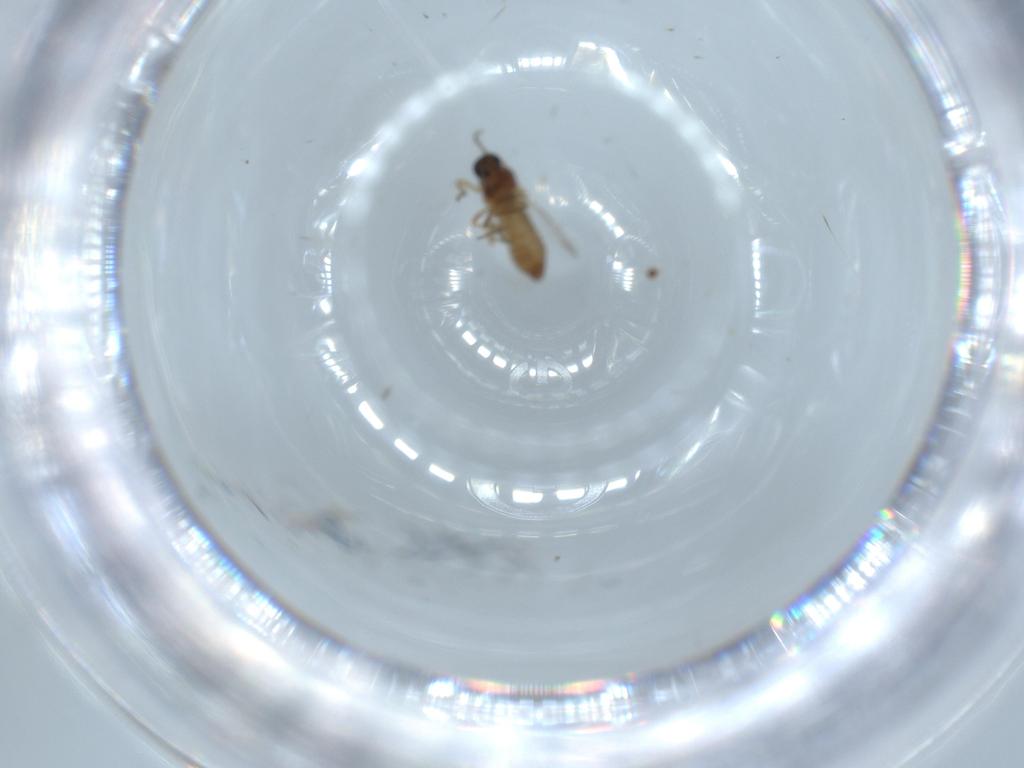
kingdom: Animalia
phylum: Arthropoda
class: Insecta
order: Diptera
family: Ceratopogonidae
